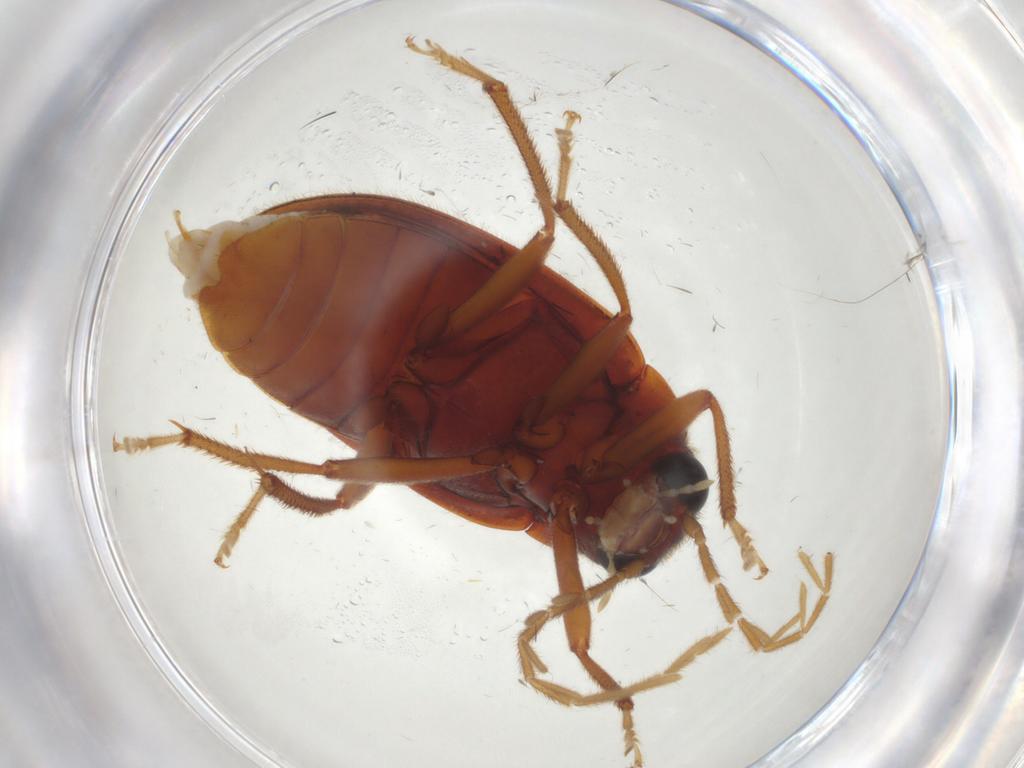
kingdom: Animalia
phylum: Arthropoda
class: Insecta
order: Coleoptera
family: Ptilodactylidae
